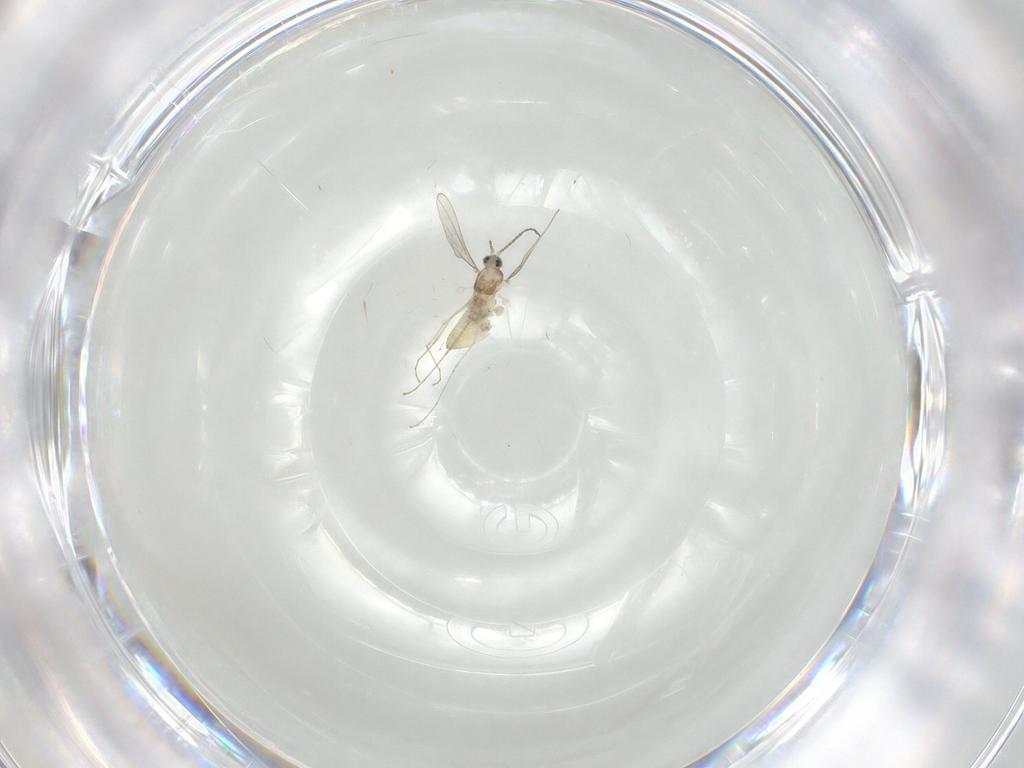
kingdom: Animalia
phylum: Arthropoda
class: Insecta
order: Diptera
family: Cecidomyiidae
